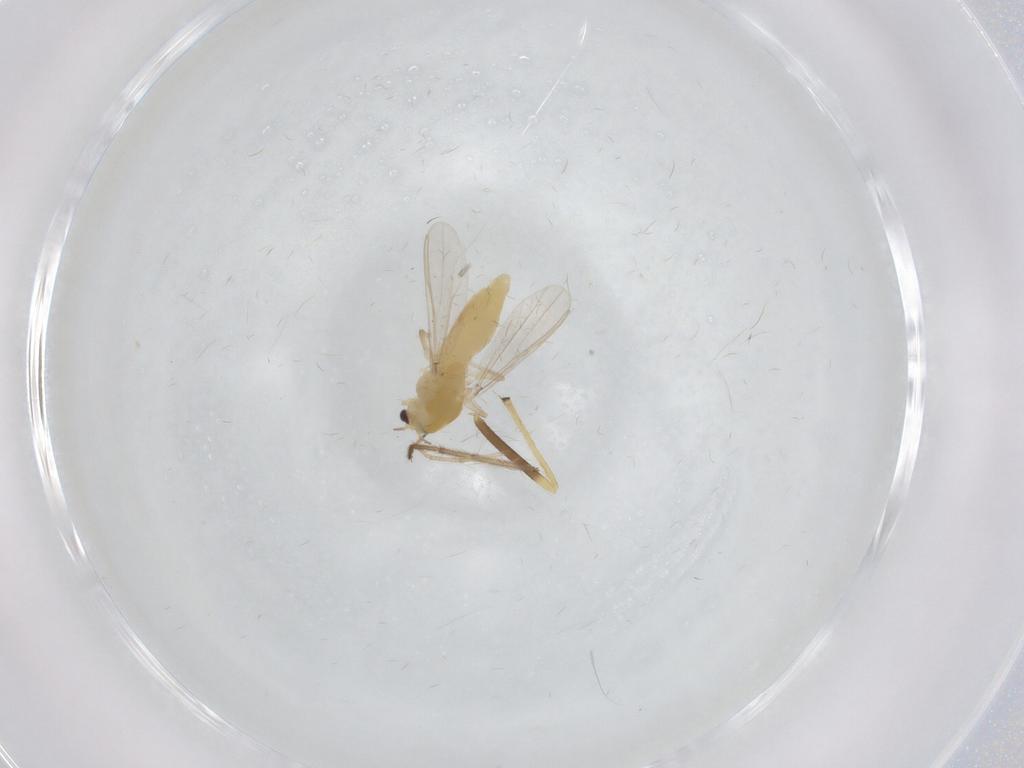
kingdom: Animalia
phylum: Arthropoda
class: Insecta
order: Diptera
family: Chironomidae
